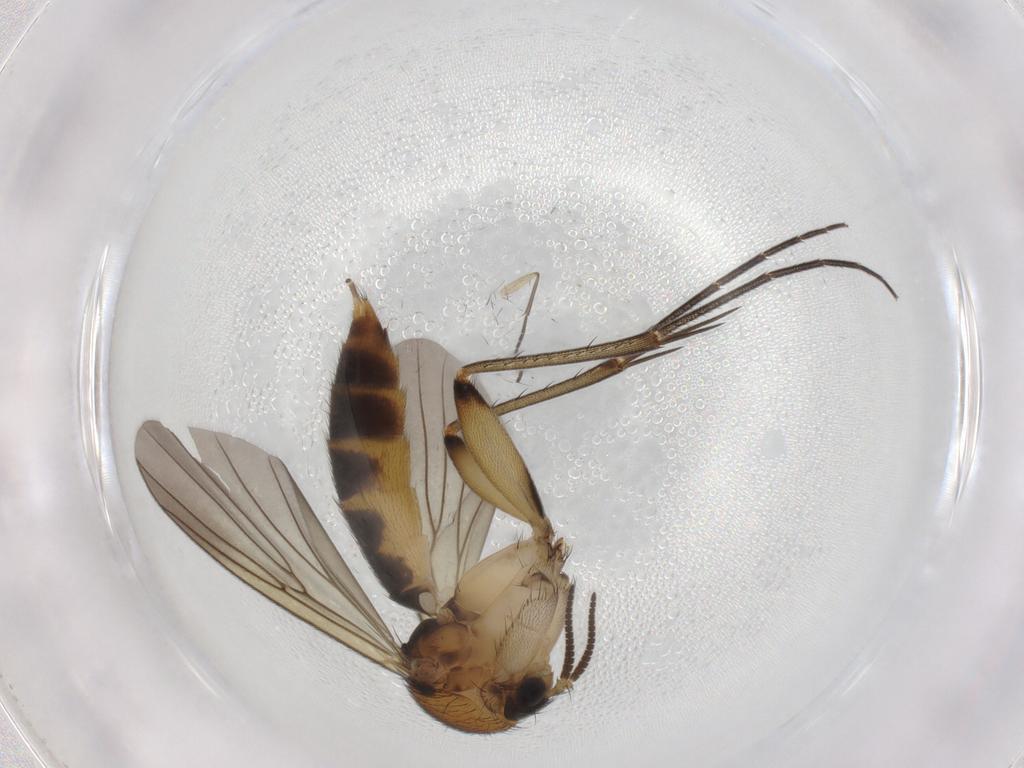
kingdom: Animalia
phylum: Arthropoda
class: Insecta
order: Diptera
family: Mycetophilidae
